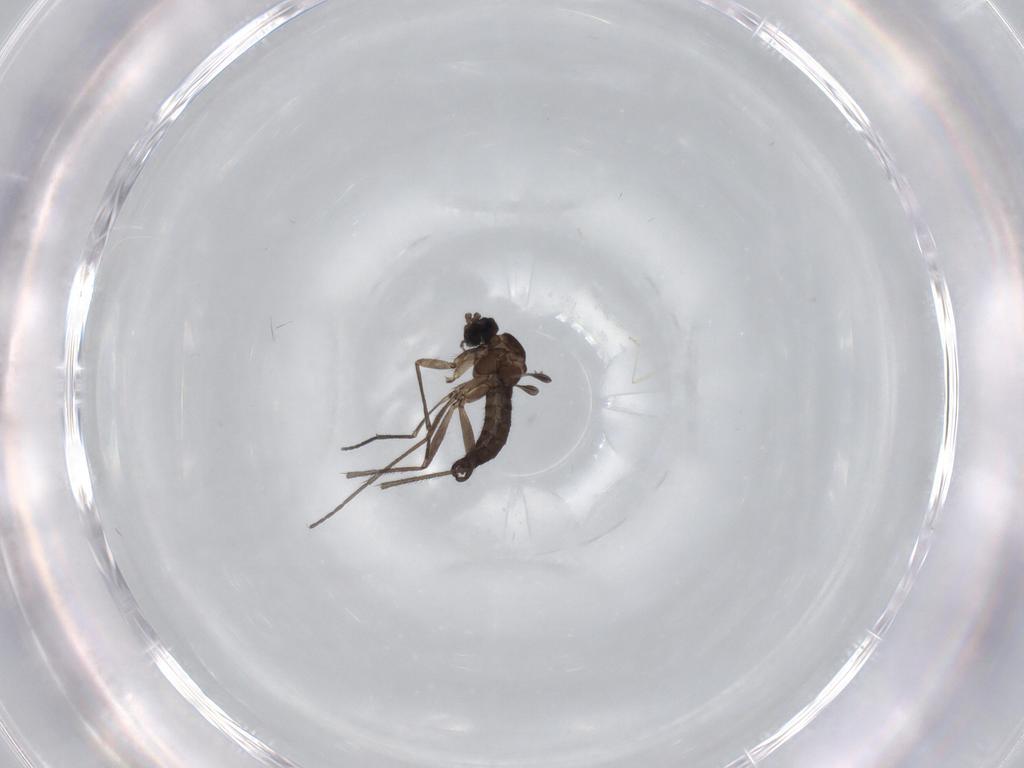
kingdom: Animalia
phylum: Arthropoda
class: Insecta
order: Diptera
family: Sciaridae
